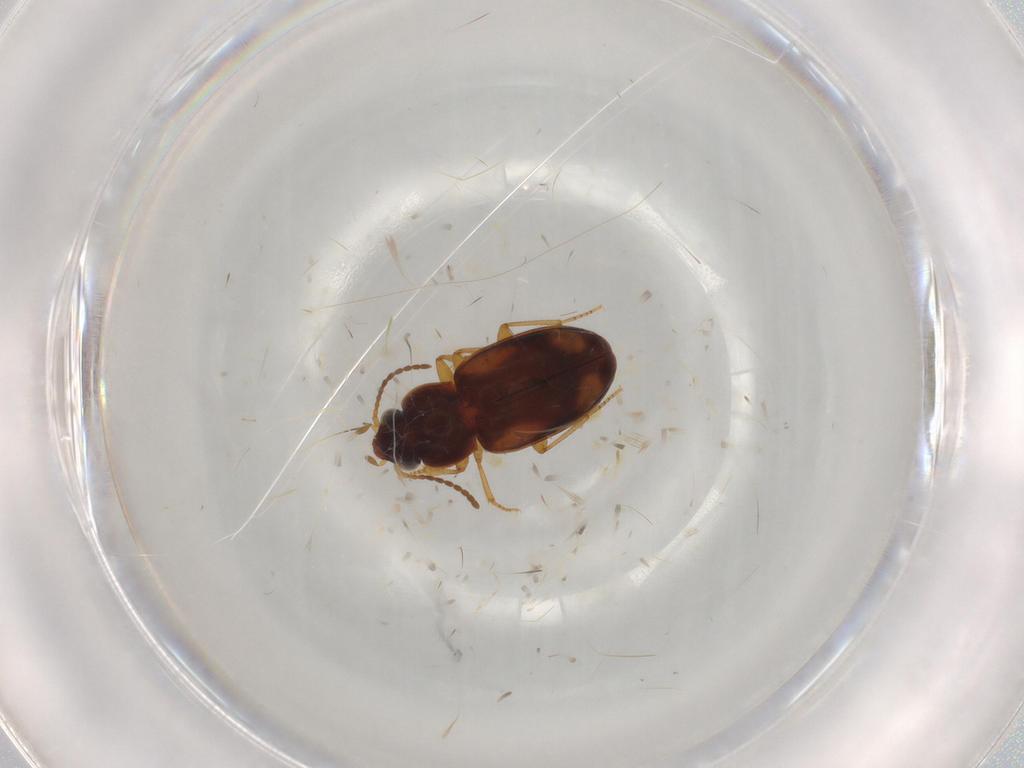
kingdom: Animalia
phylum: Arthropoda
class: Insecta
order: Coleoptera
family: Carabidae
